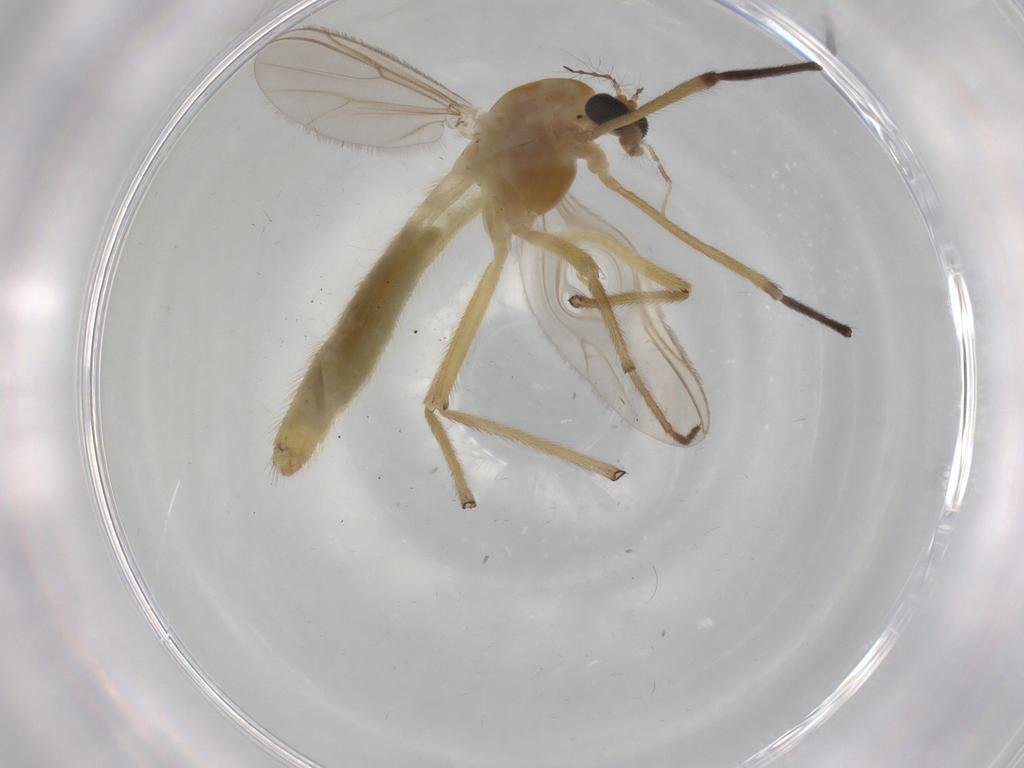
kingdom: Animalia
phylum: Arthropoda
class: Insecta
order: Diptera
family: Chironomidae
